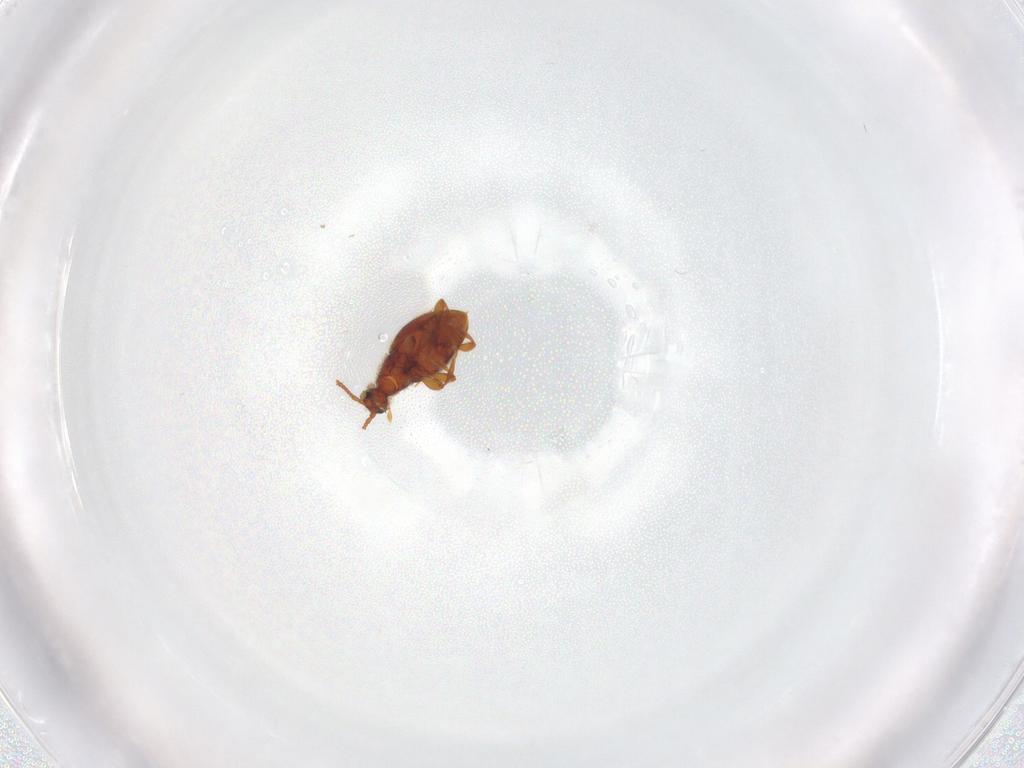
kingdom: Animalia
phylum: Arthropoda
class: Insecta
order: Coleoptera
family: Staphylinidae
